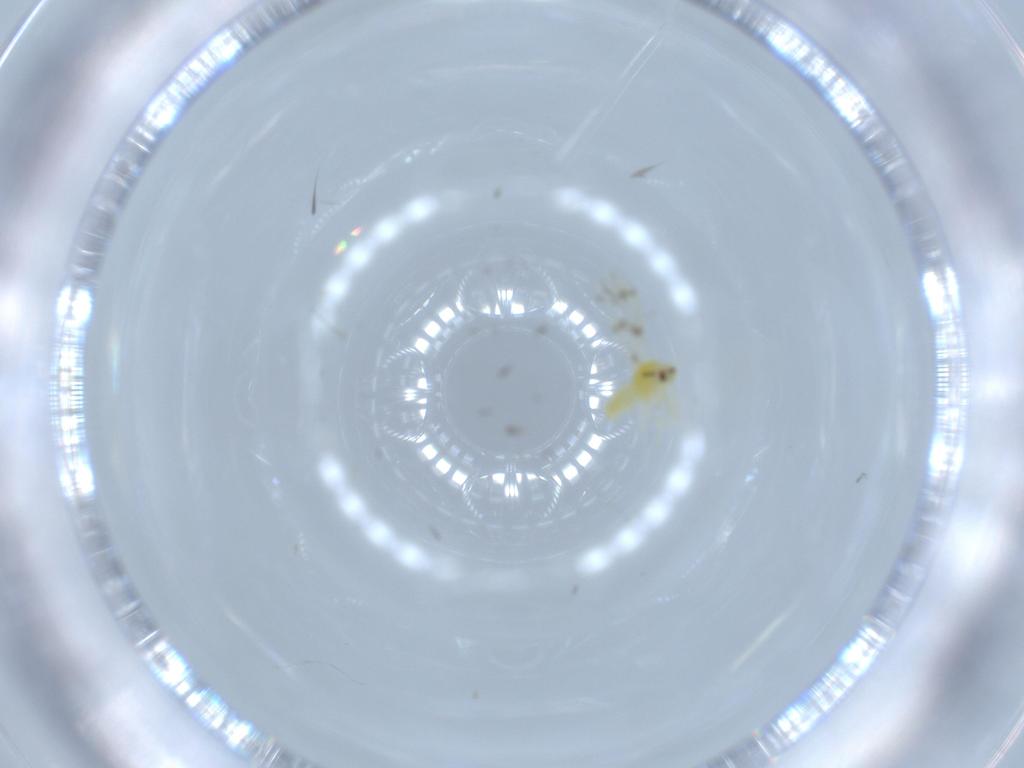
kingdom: Animalia
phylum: Arthropoda
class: Insecta
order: Hemiptera
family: Aleyrodidae
